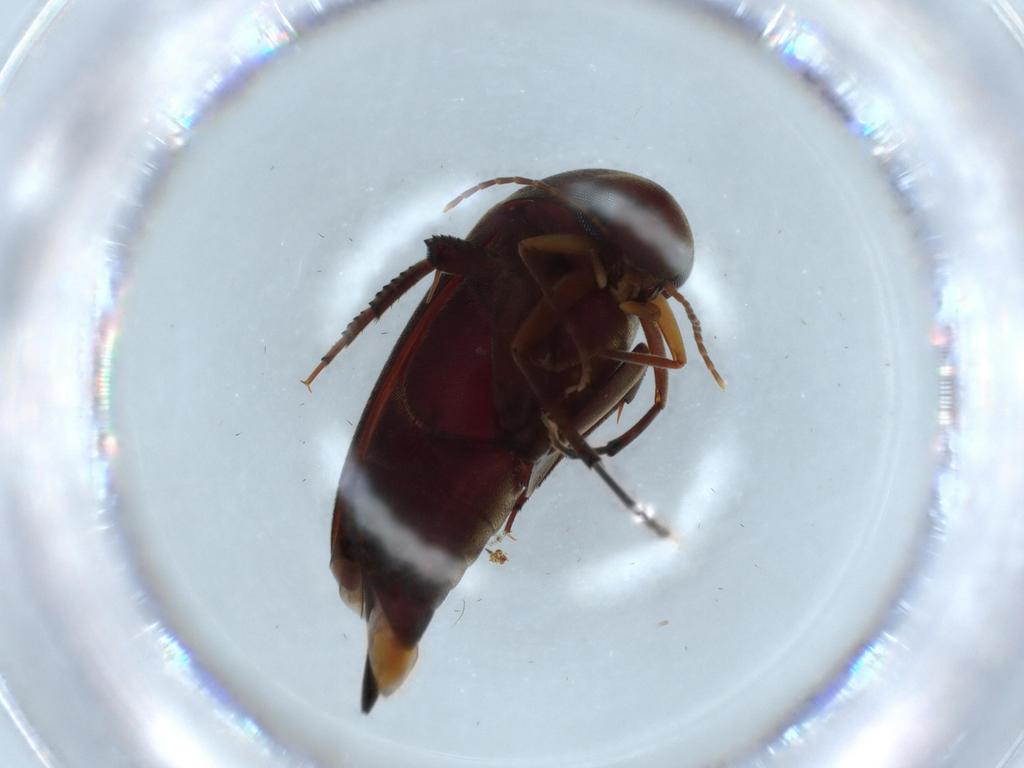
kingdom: Animalia
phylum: Arthropoda
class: Insecta
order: Coleoptera
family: Mordellidae
